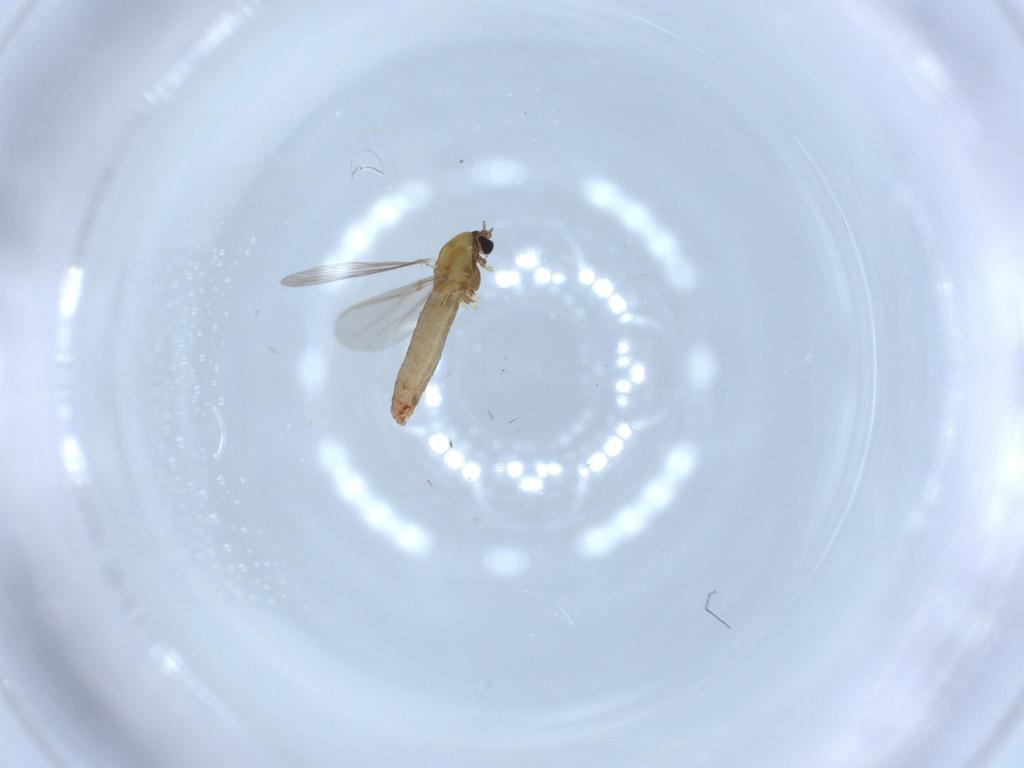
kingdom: Animalia
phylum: Arthropoda
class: Insecta
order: Diptera
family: Chironomidae
